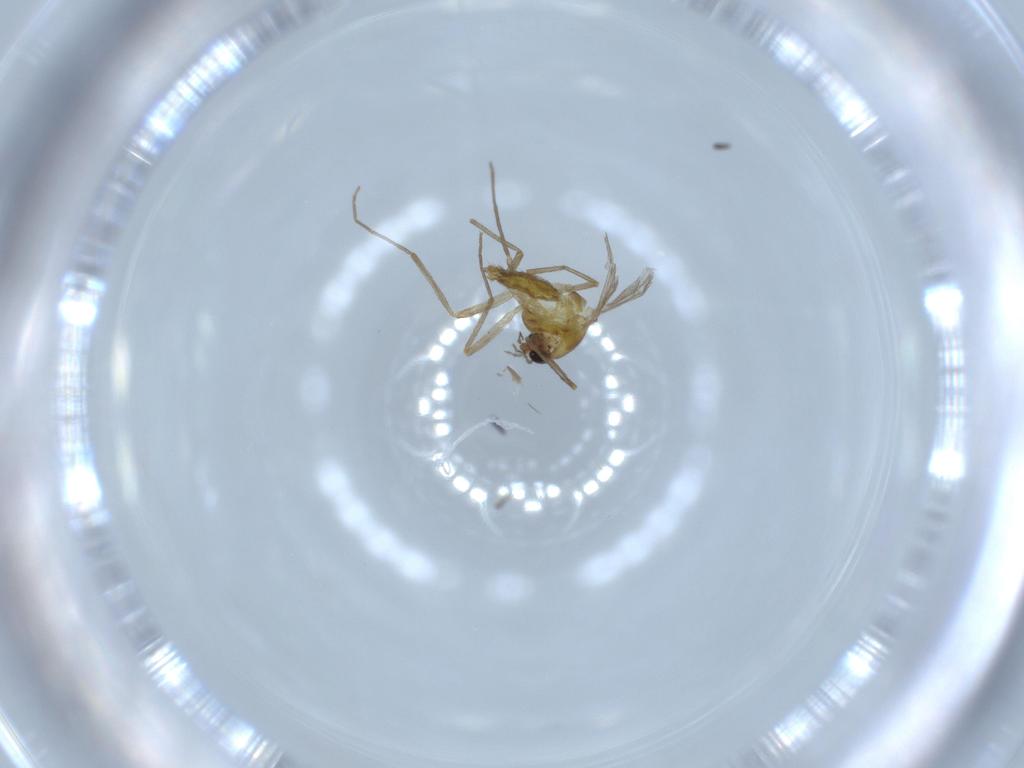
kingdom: Animalia
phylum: Arthropoda
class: Insecta
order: Diptera
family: Chironomidae
